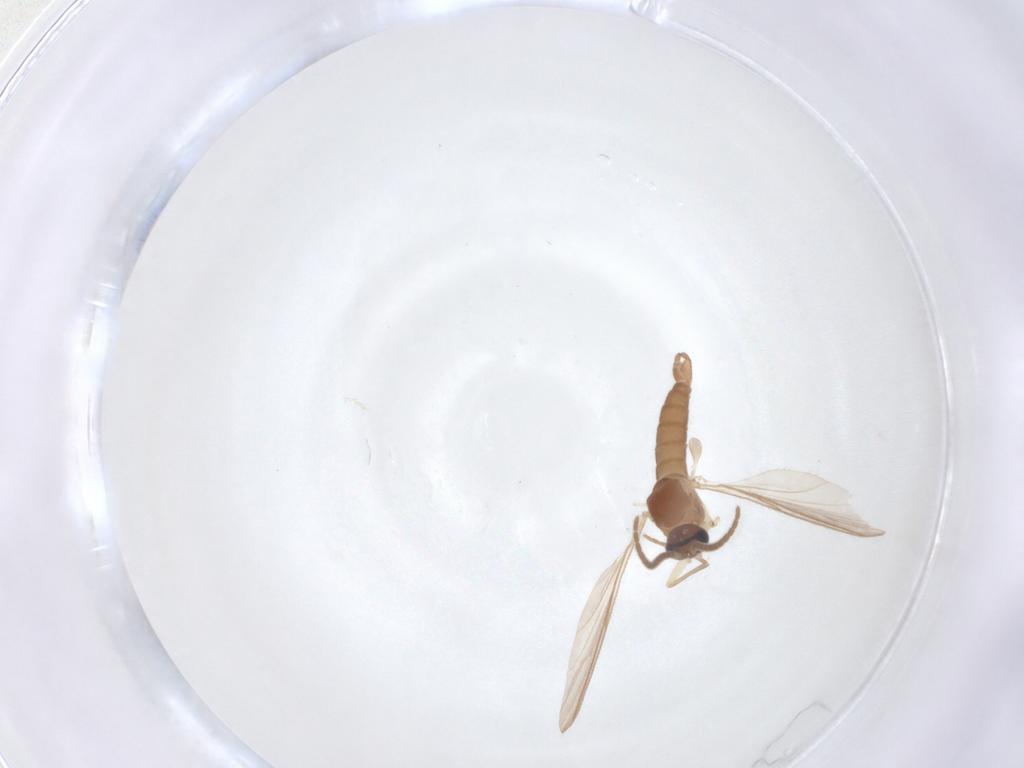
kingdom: Animalia
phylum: Arthropoda
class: Insecta
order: Diptera
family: Sciaridae
